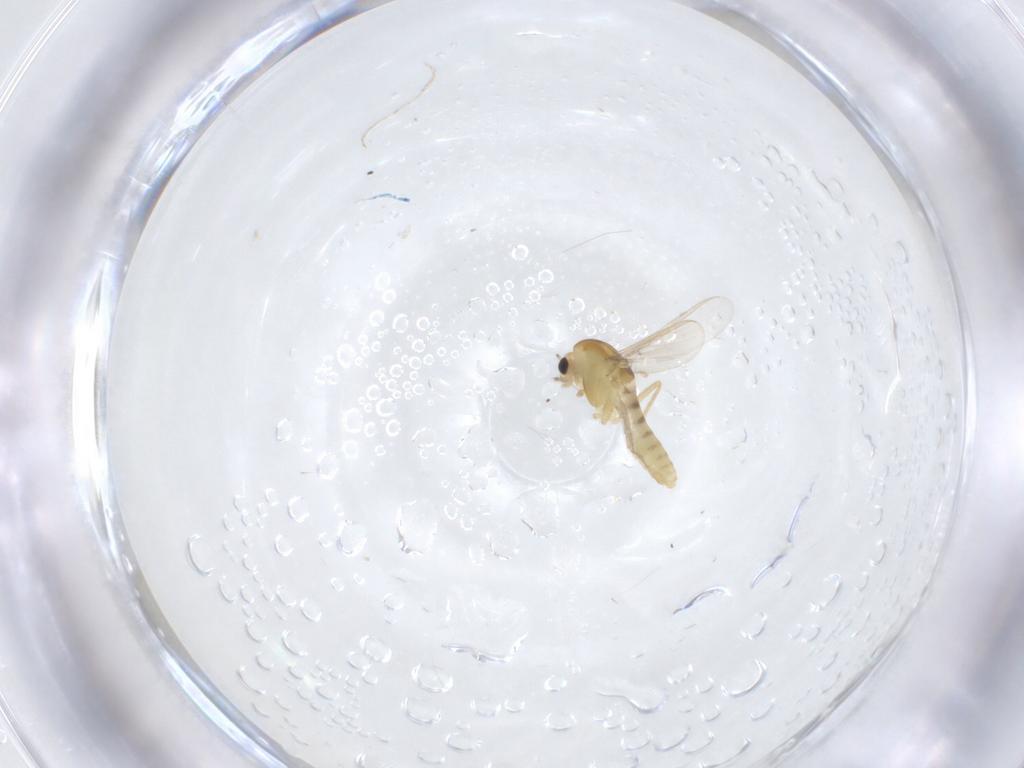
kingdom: Animalia
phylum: Arthropoda
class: Insecta
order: Diptera
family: Chironomidae
